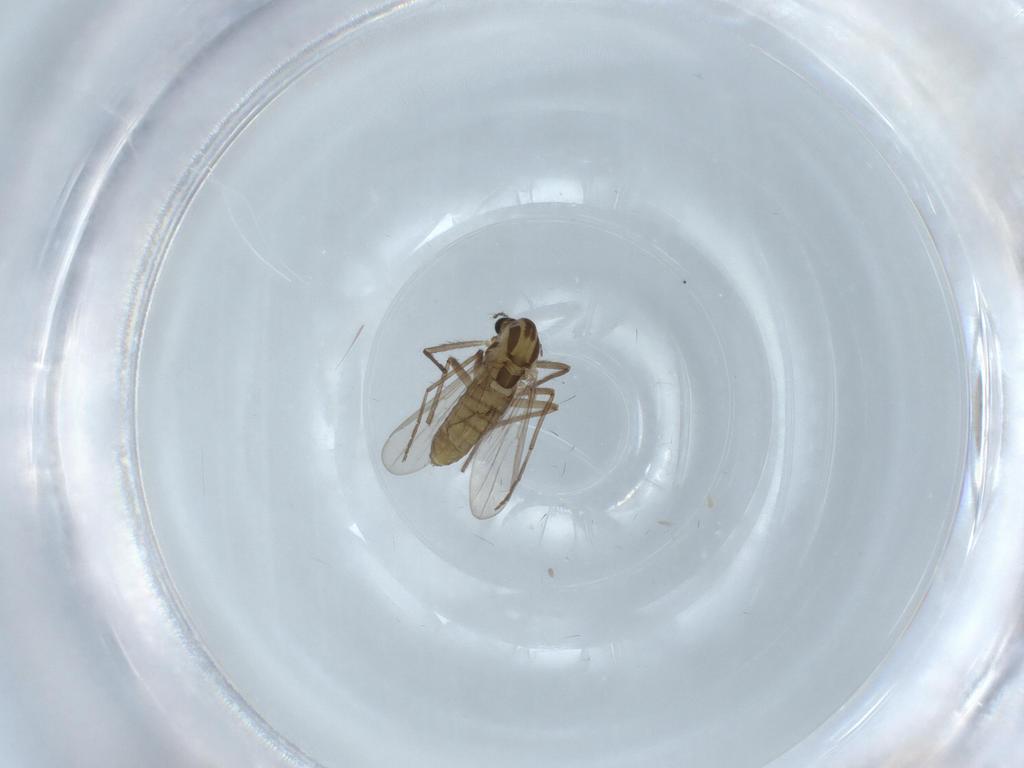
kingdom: Animalia
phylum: Arthropoda
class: Insecta
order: Diptera
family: Chironomidae
